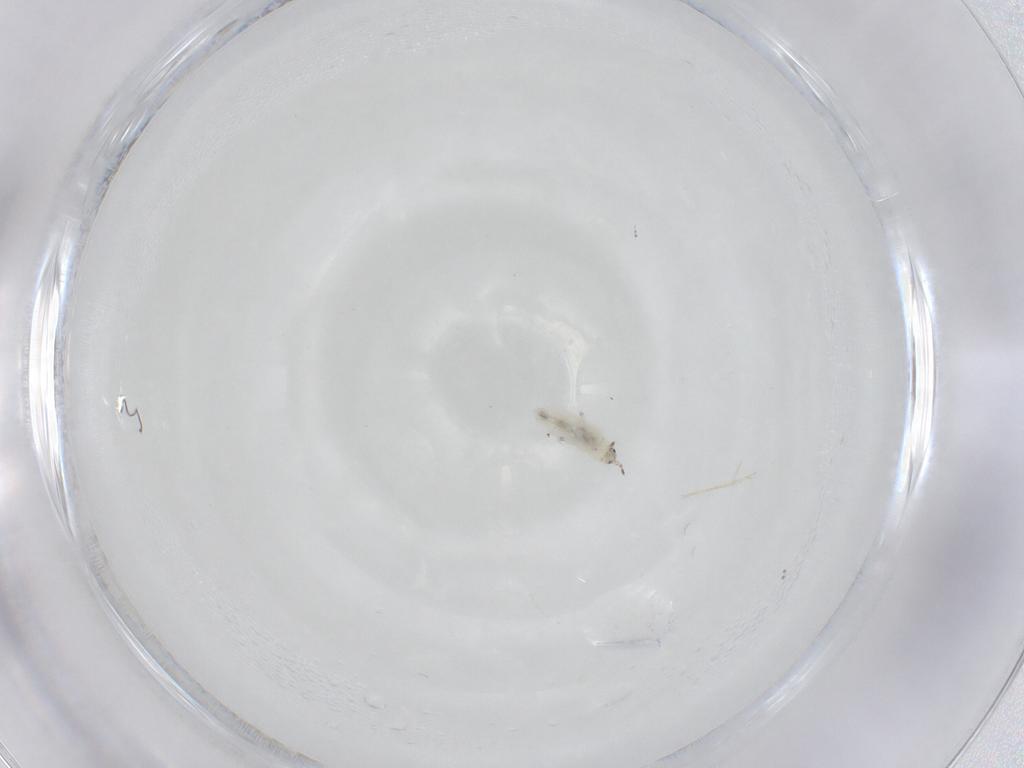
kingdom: Animalia
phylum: Arthropoda
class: Insecta
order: Diptera
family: Psychodidae
